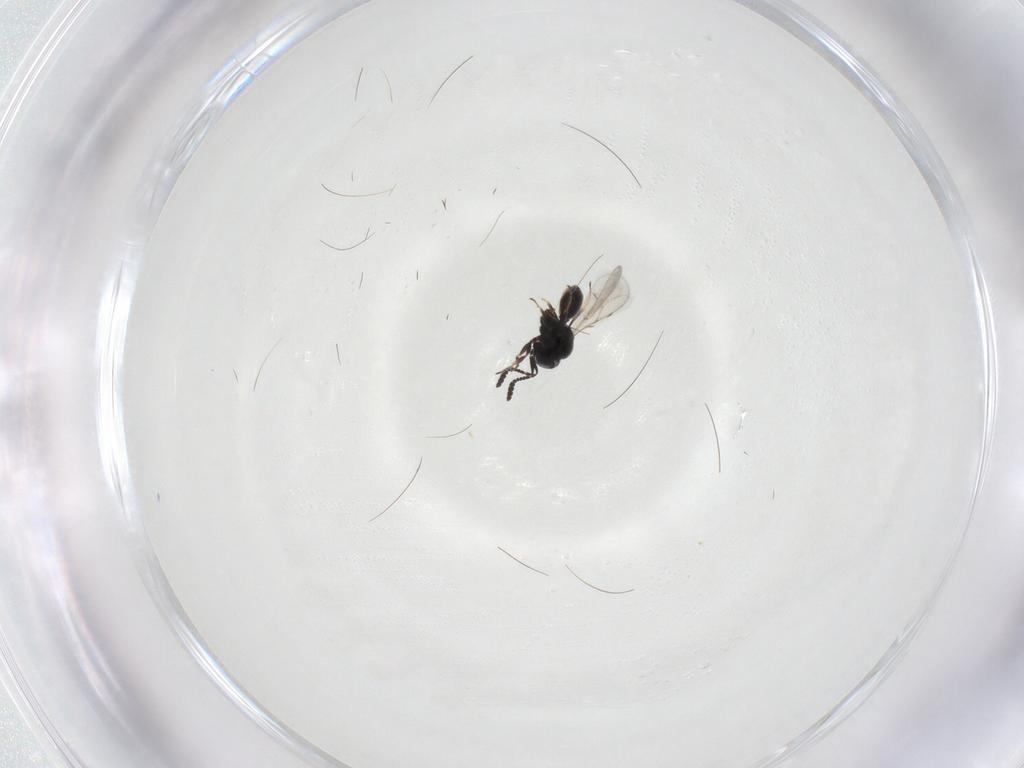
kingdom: Animalia
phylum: Arthropoda
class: Insecta
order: Hymenoptera
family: Scelionidae
